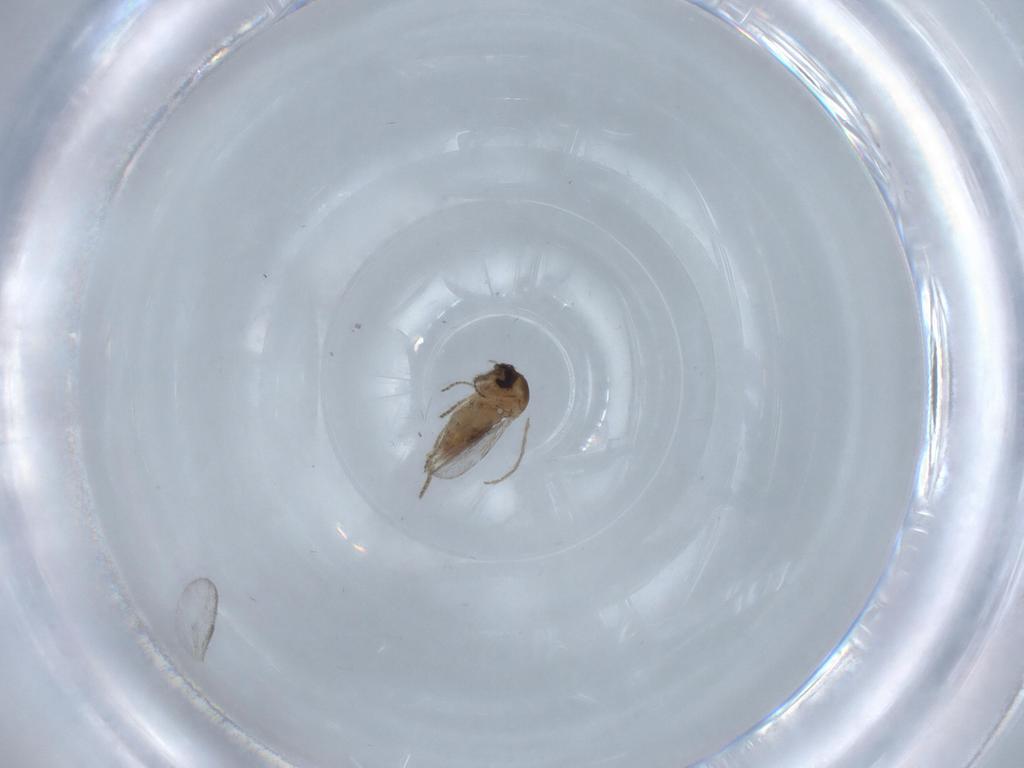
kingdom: Animalia
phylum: Arthropoda
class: Insecta
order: Diptera
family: Chironomidae
